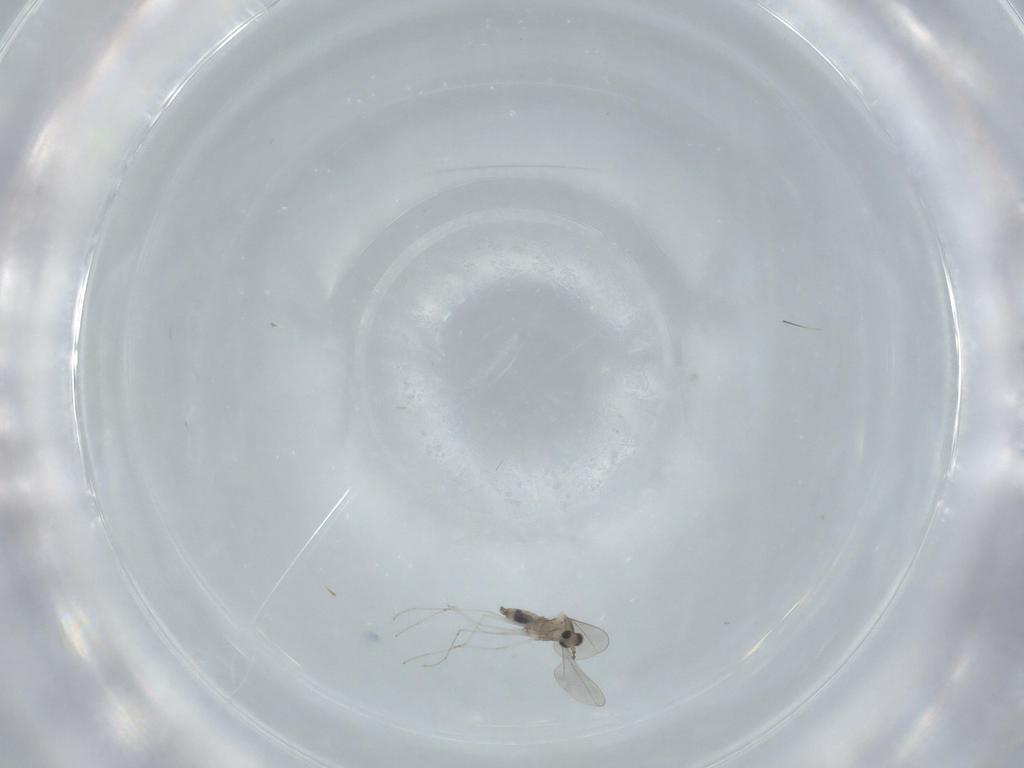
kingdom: Animalia
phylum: Arthropoda
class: Insecta
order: Diptera
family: Cecidomyiidae
